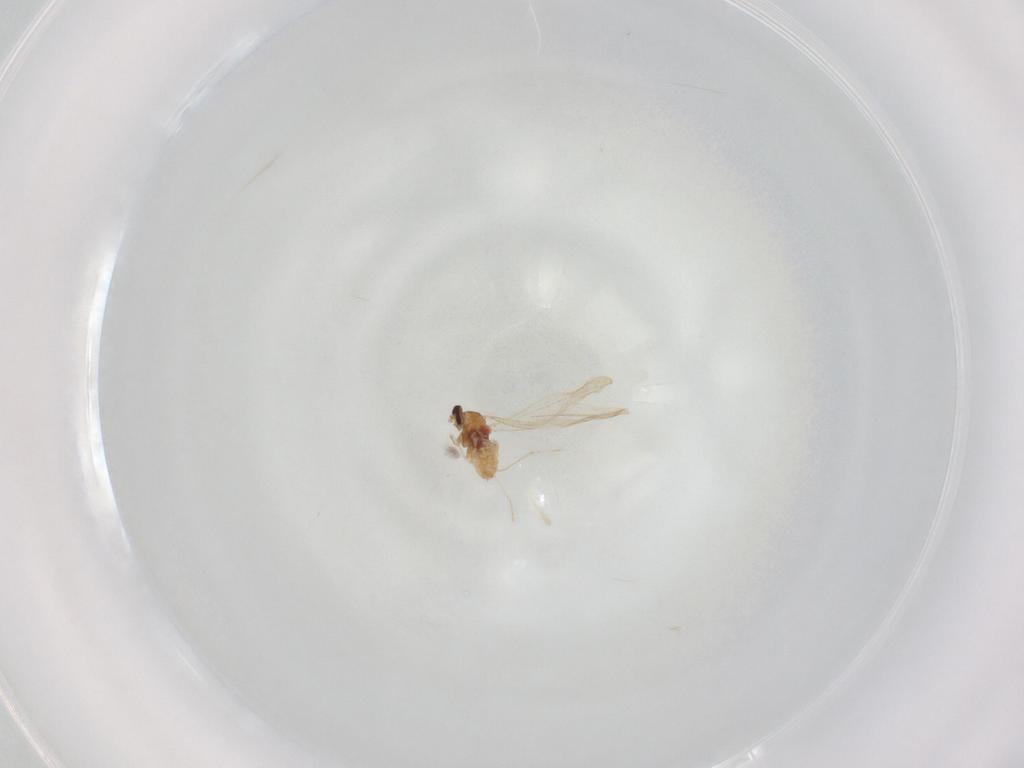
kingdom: Animalia
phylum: Arthropoda
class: Insecta
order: Diptera
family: Cecidomyiidae
